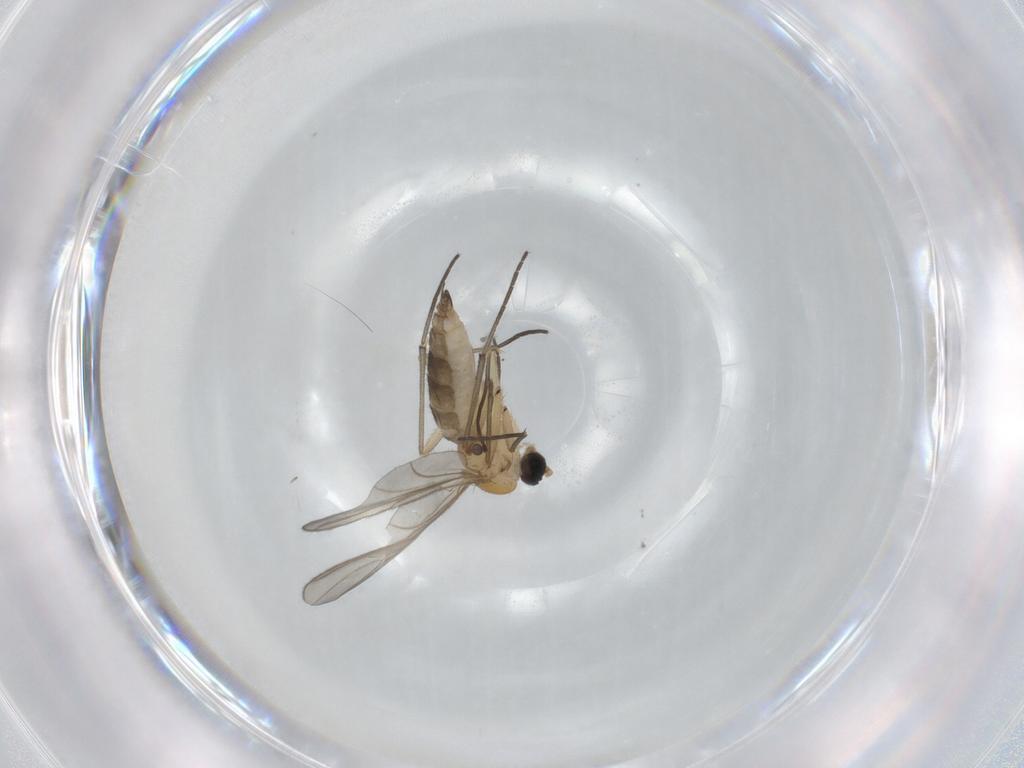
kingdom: Animalia
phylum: Arthropoda
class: Insecta
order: Diptera
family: Sciaridae
